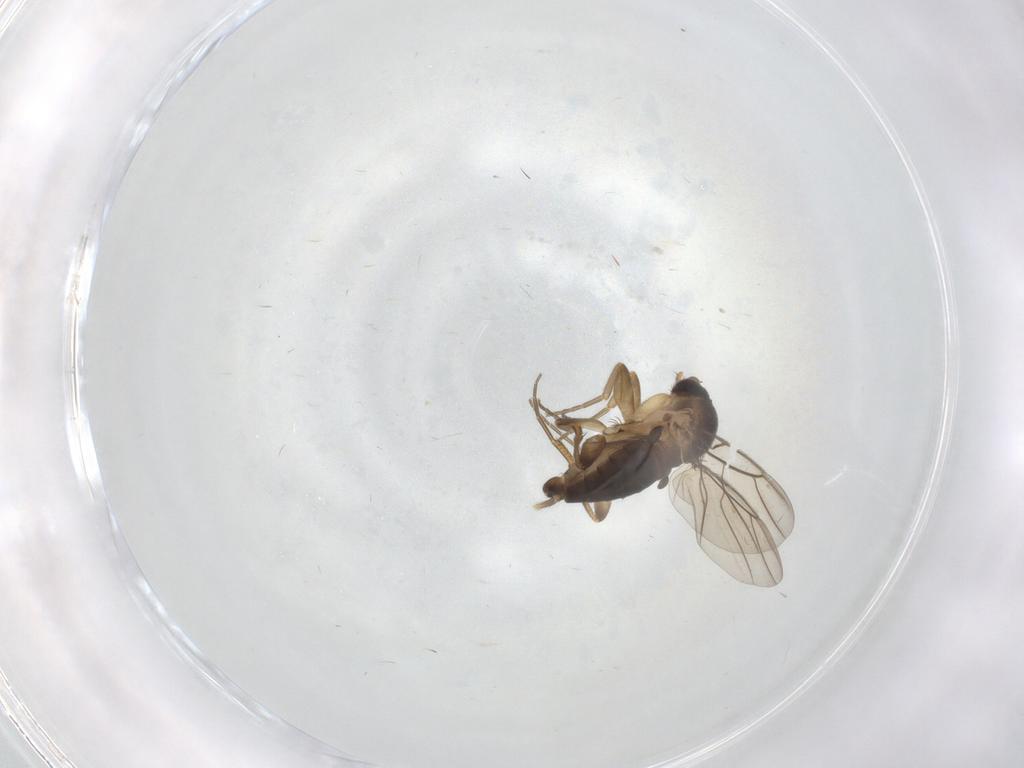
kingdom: Animalia
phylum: Arthropoda
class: Insecta
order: Diptera
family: Phoridae
